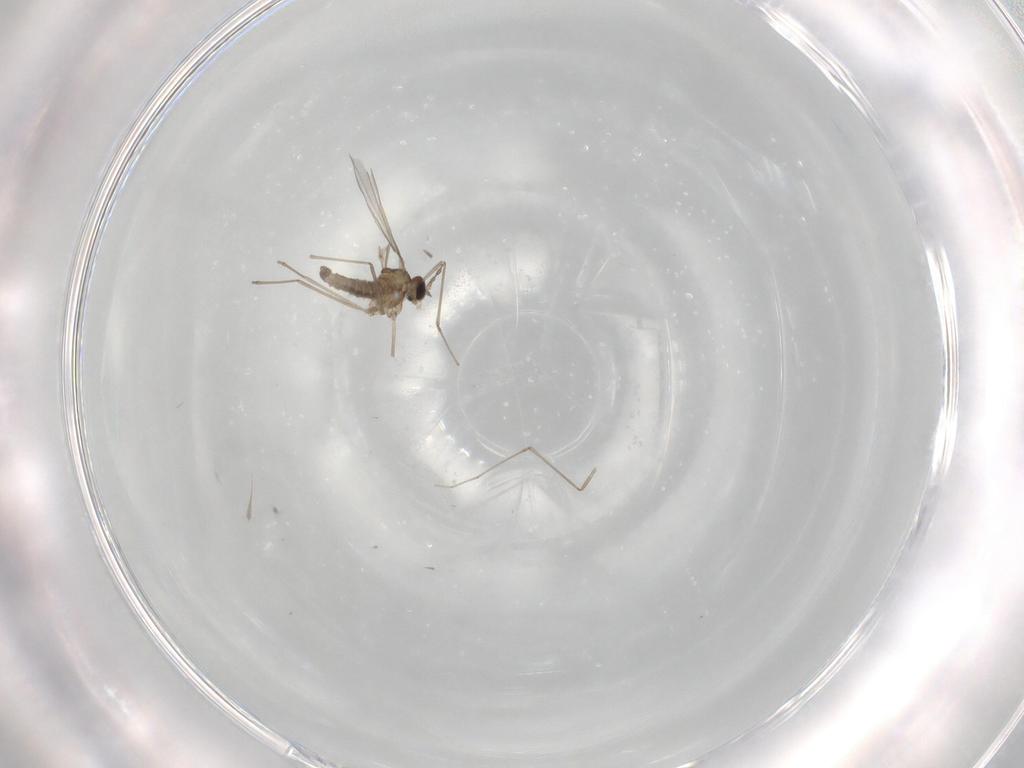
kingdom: Animalia
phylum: Arthropoda
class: Insecta
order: Diptera
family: Cecidomyiidae
